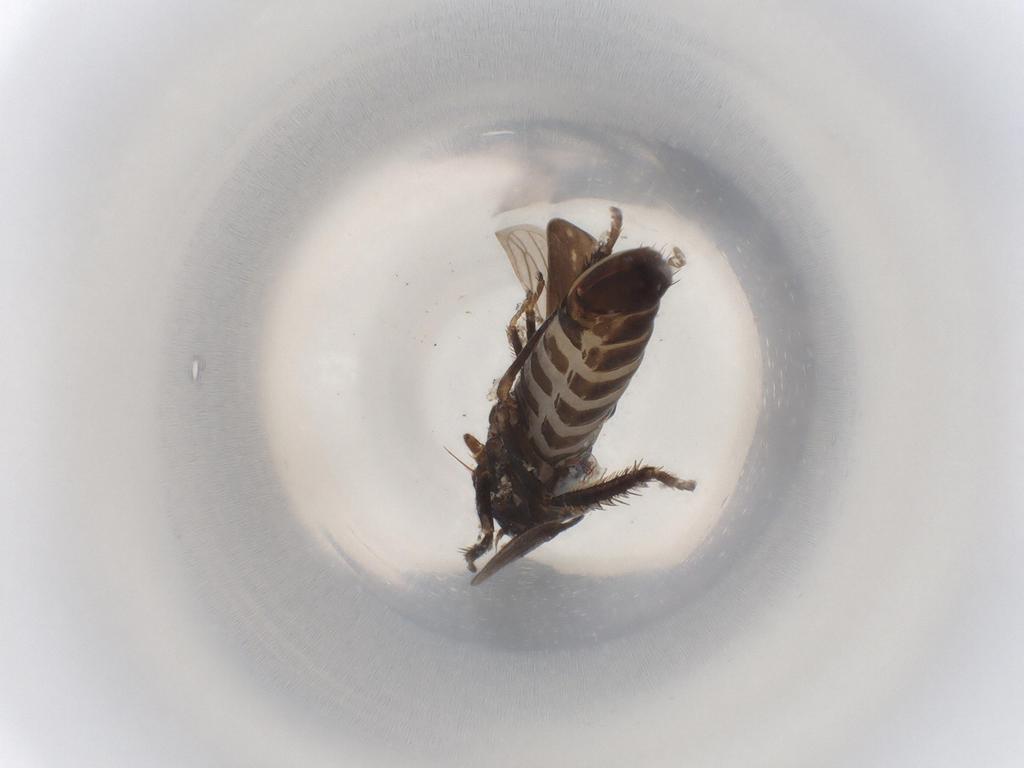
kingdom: Animalia
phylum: Arthropoda
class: Insecta
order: Hemiptera
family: Cicadellidae
